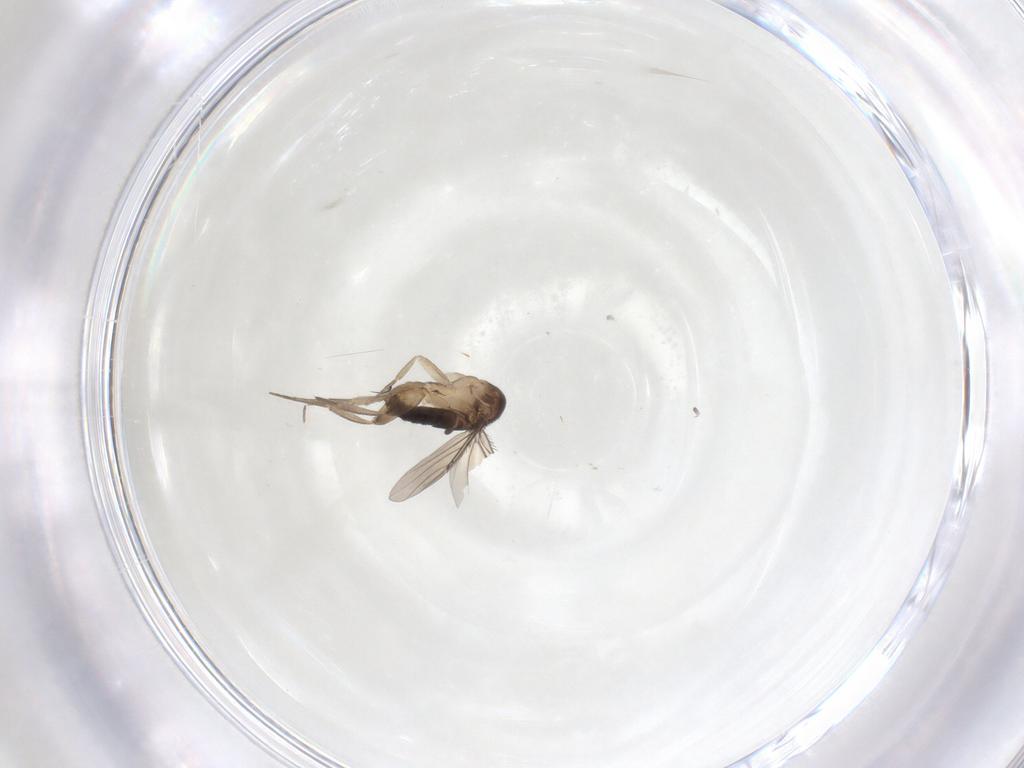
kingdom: Animalia
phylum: Arthropoda
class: Insecta
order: Diptera
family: Phoridae
